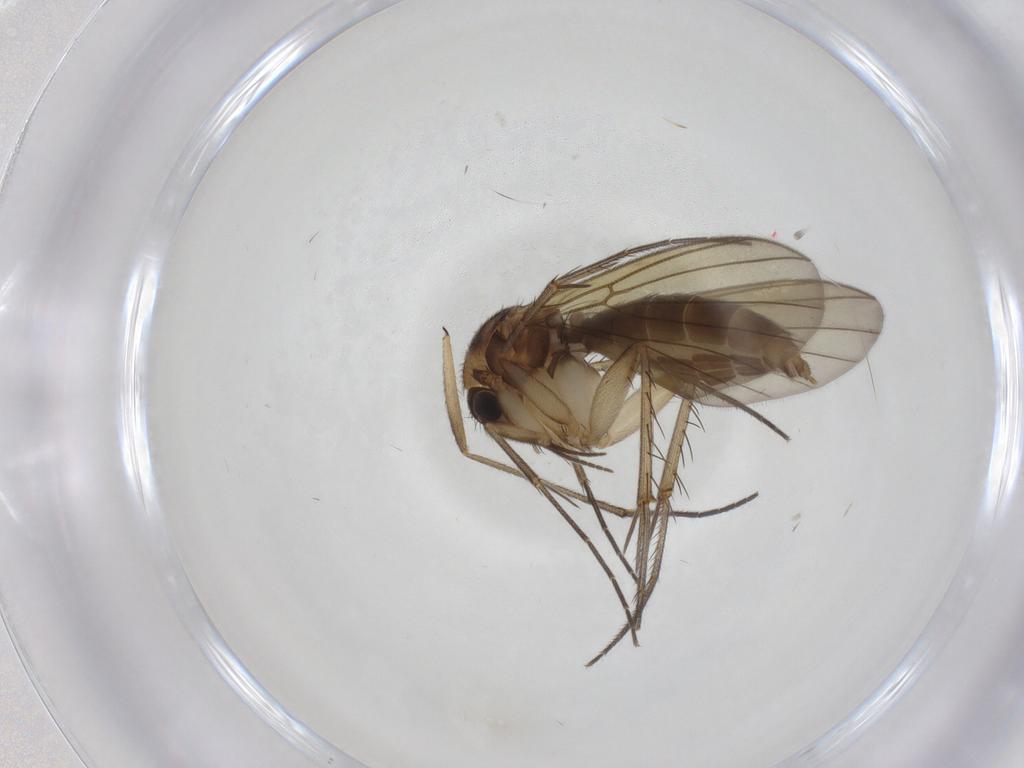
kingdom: Animalia
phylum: Arthropoda
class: Insecta
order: Diptera
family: Mycetophilidae
